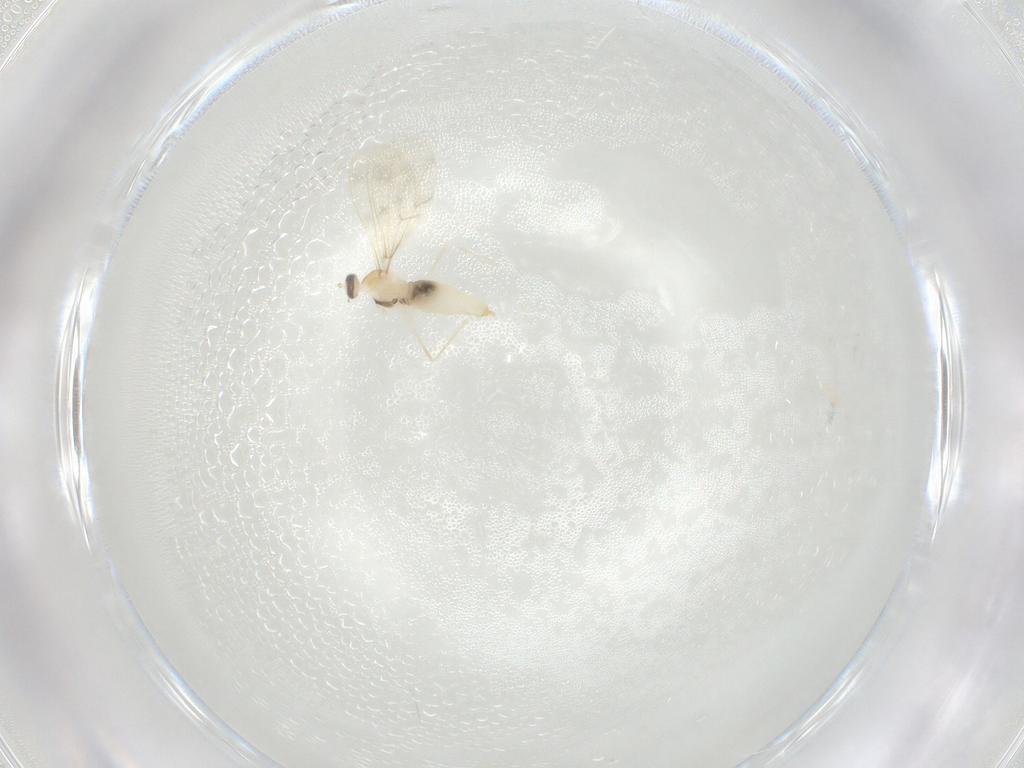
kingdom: Animalia
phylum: Arthropoda
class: Insecta
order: Diptera
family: Cecidomyiidae
